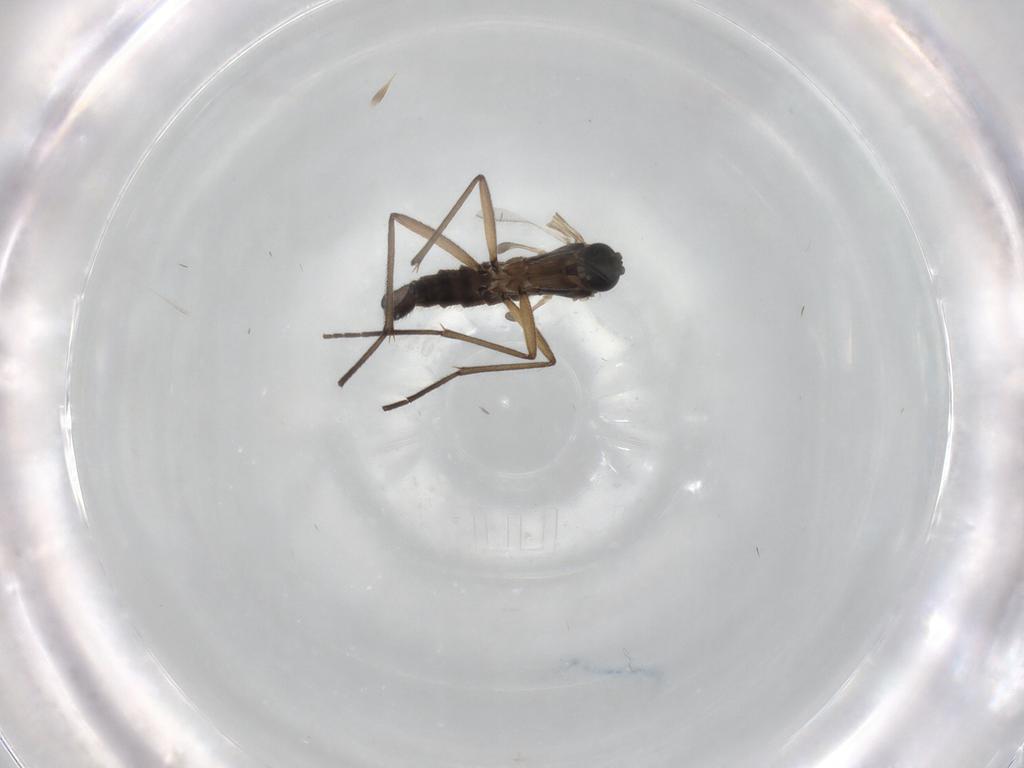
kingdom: Animalia
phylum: Arthropoda
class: Insecta
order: Diptera
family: Sciaridae
